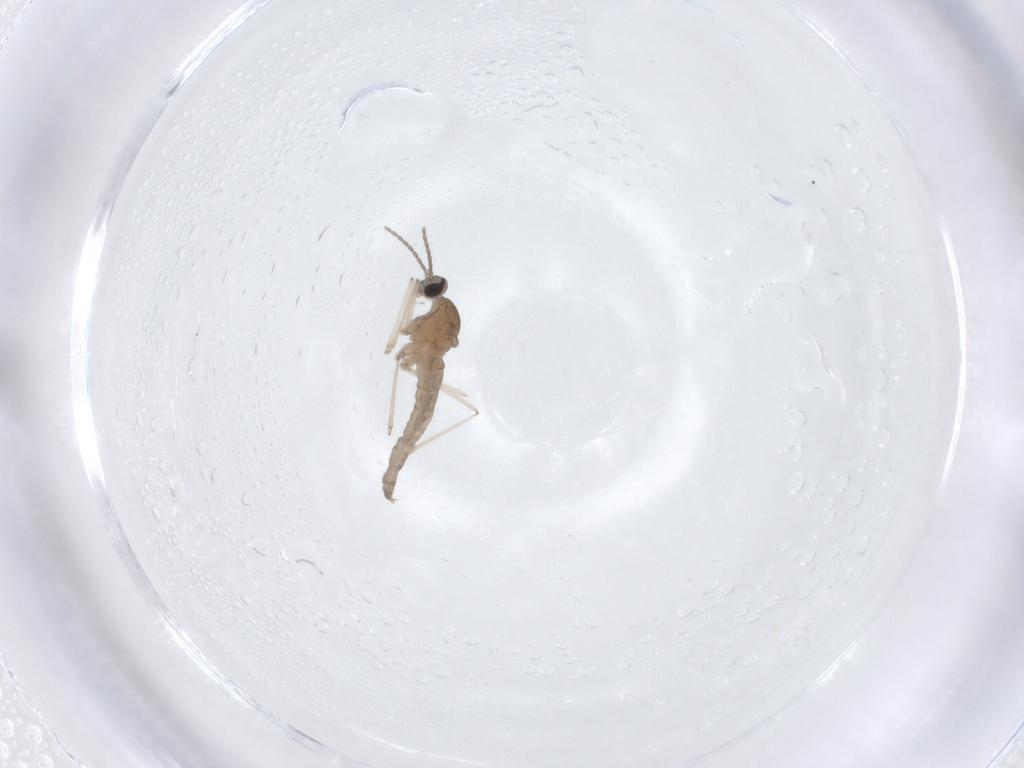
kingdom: Animalia
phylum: Arthropoda
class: Insecta
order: Diptera
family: Cecidomyiidae
